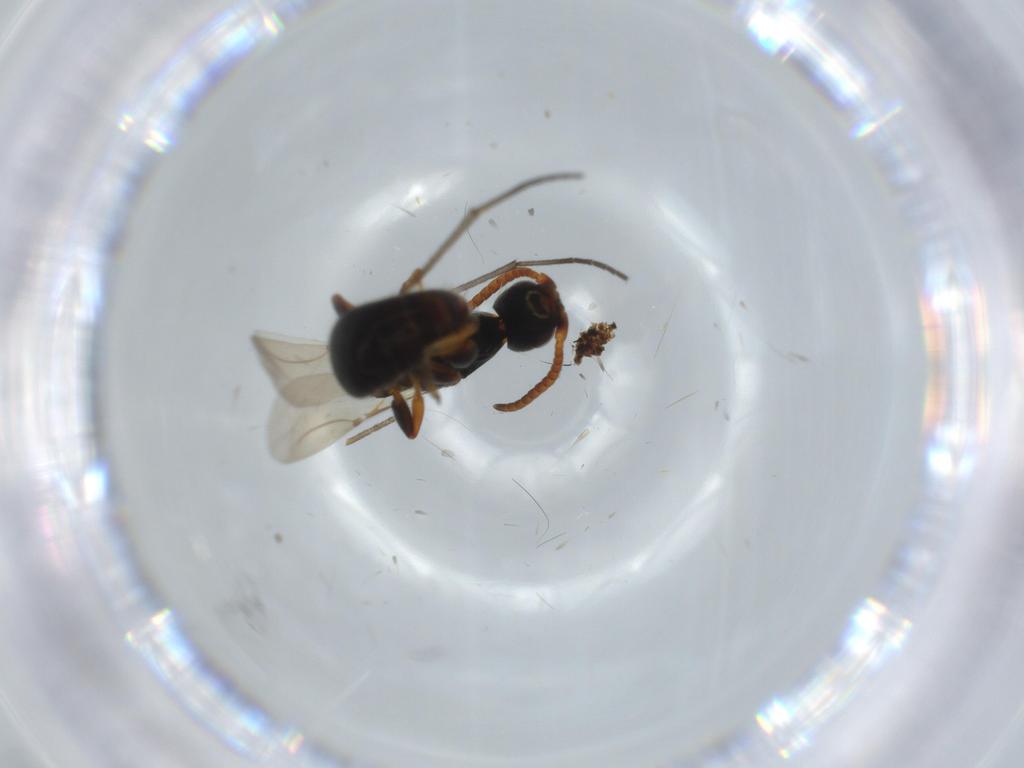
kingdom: Animalia
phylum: Arthropoda
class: Insecta
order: Hymenoptera
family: Bethylidae
